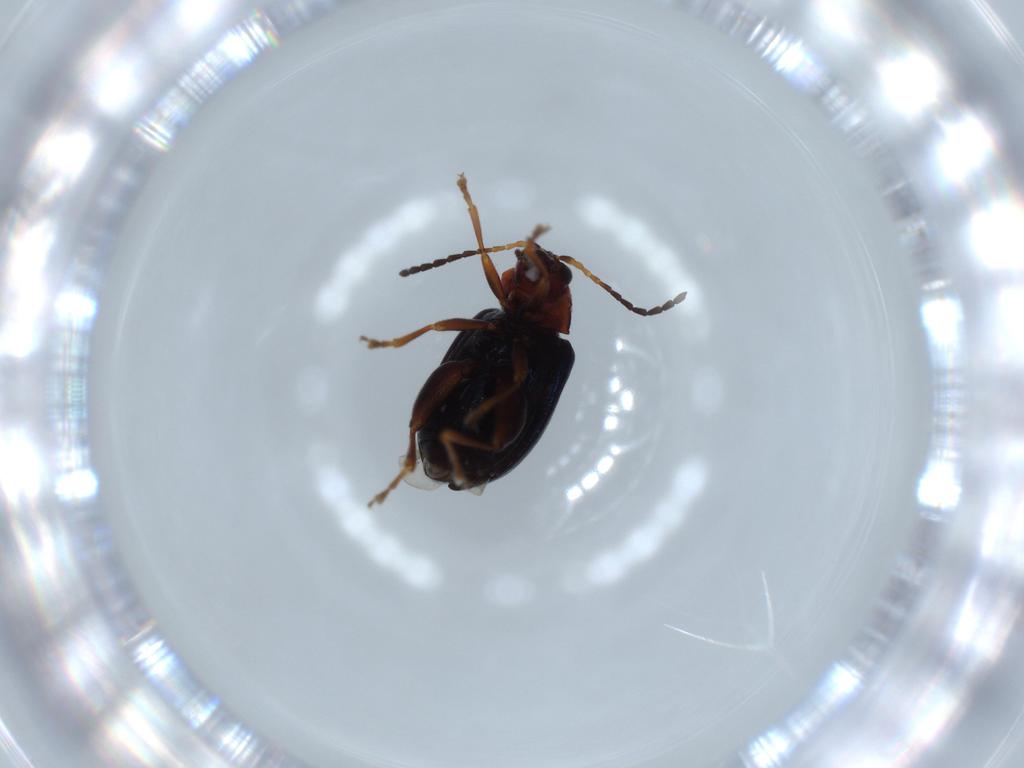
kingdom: Animalia
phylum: Arthropoda
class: Insecta
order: Coleoptera
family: Chrysomelidae
